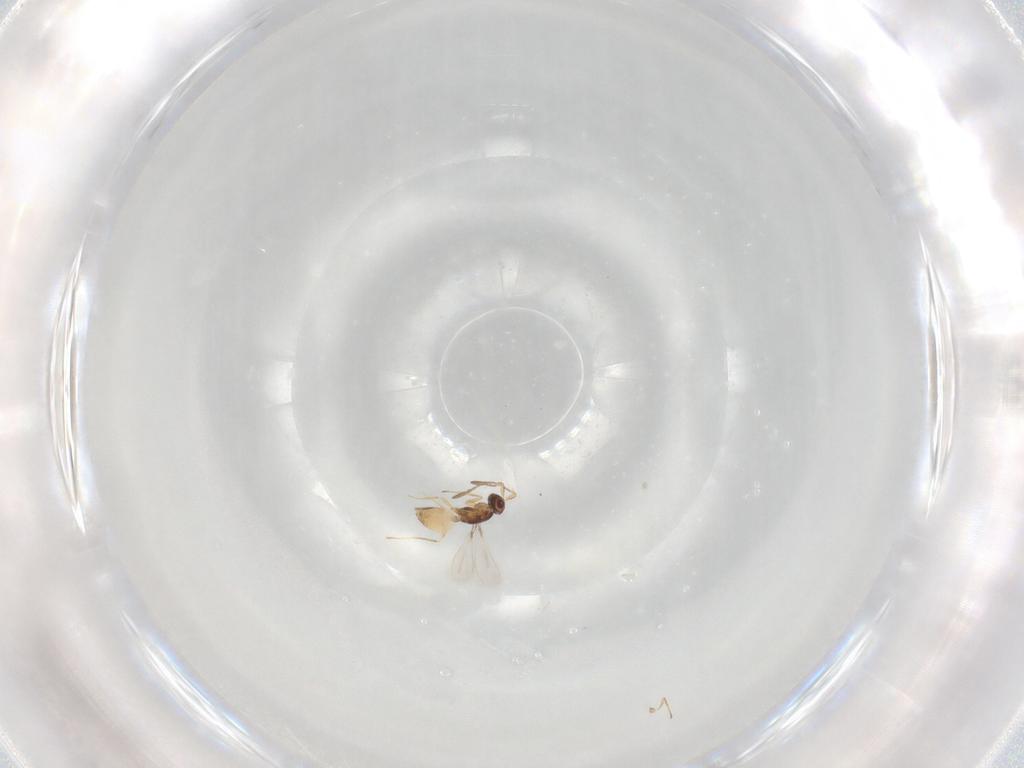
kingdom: Animalia
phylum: Arthropoda
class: Insecta
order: Hymenoptera
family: Mymaridae
